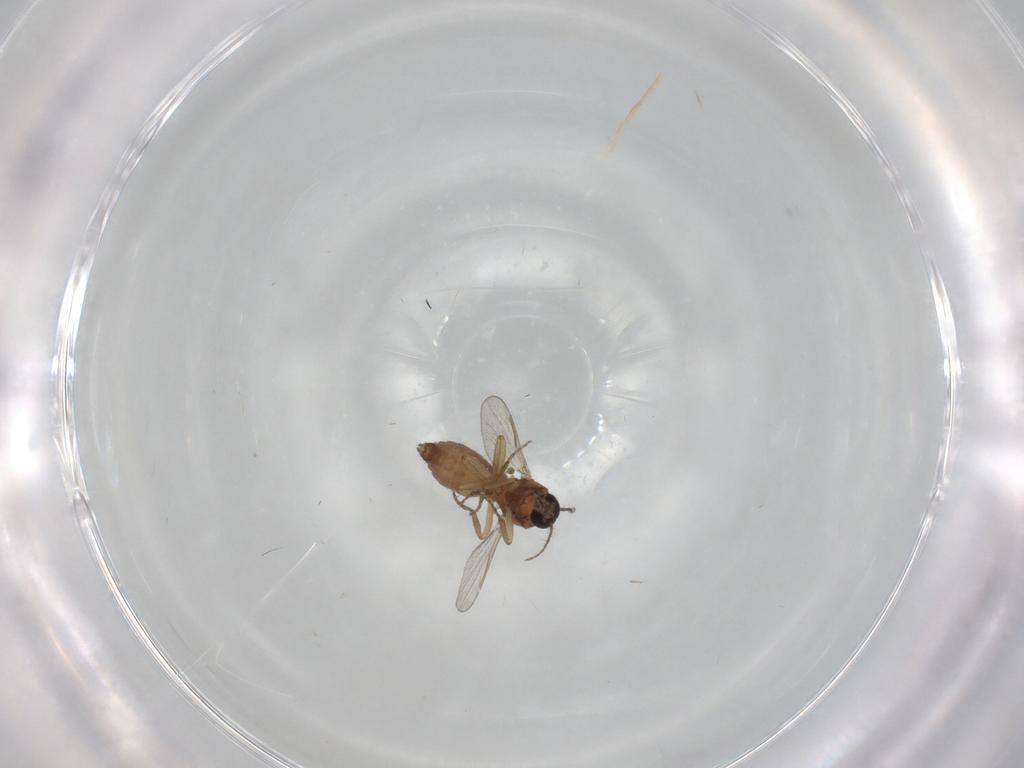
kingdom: Animalia
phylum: Arthropoda
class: Insecta
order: Diptera
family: Ceratopogonidae
